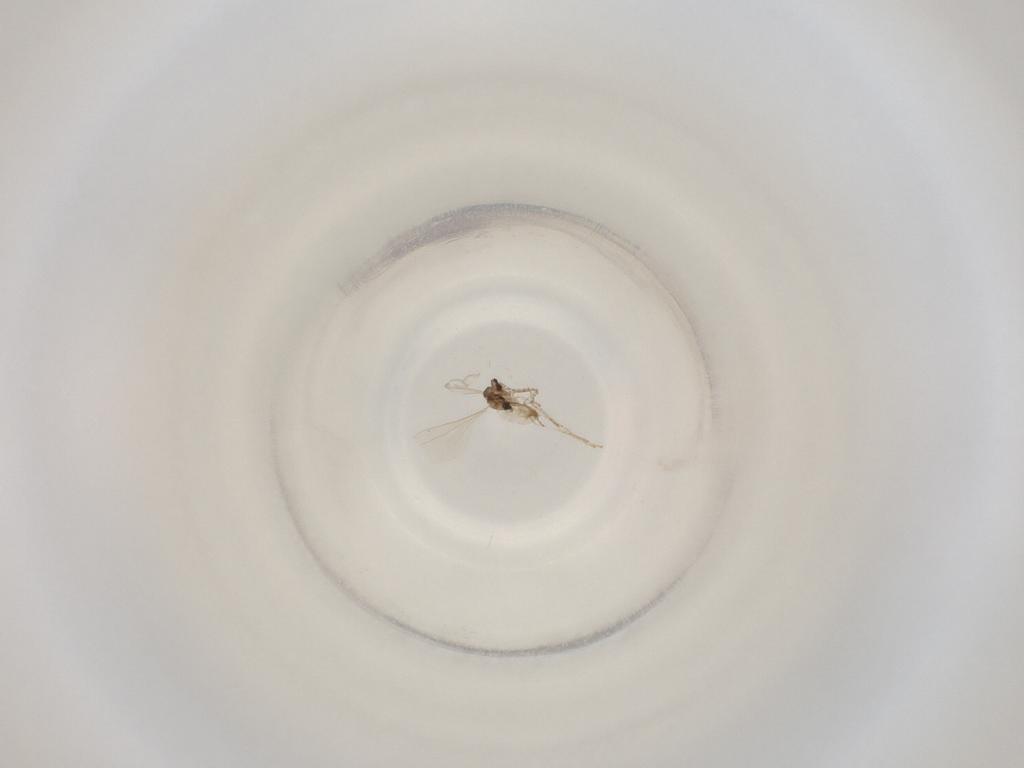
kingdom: Animalia
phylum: Arthropoda
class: Insecta
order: Diptera
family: Cecidomyiidae
